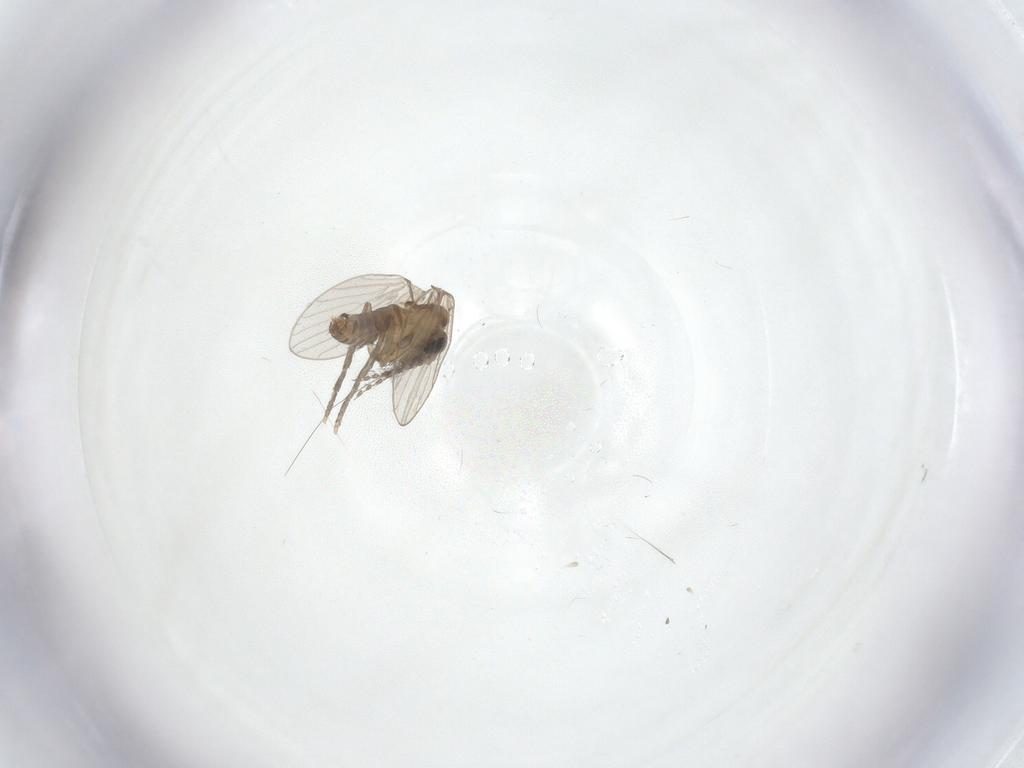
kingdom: Animalia
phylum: Arthropoda
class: Insecta
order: Diptera
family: Psychodidae
